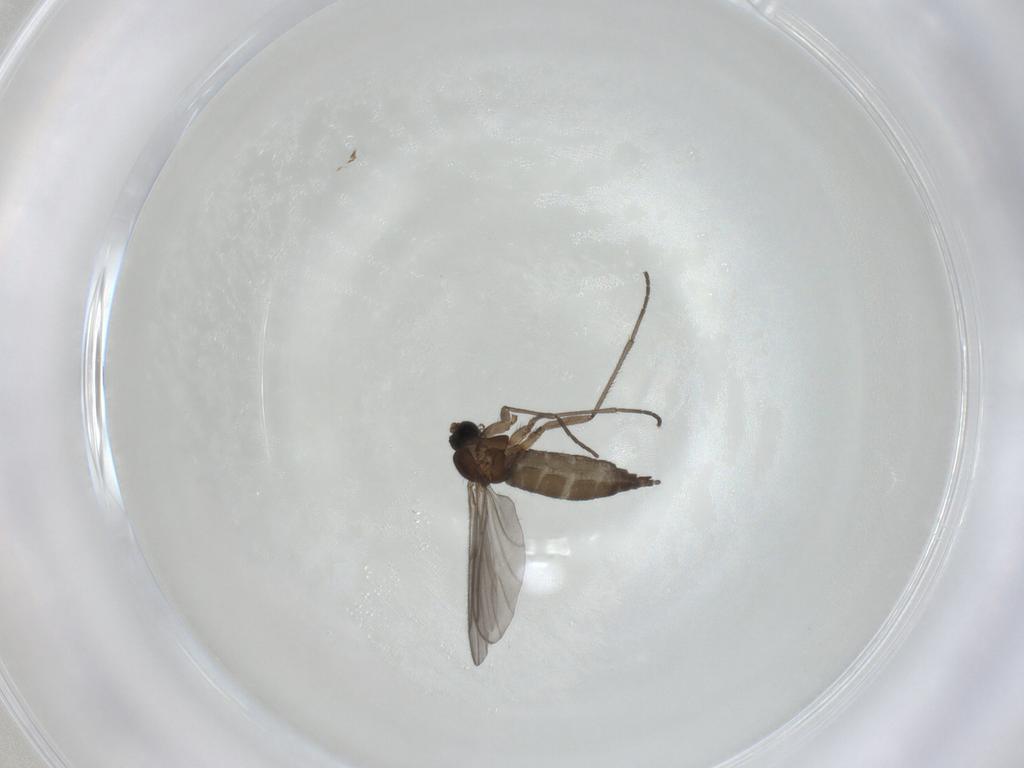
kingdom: Animalia
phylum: Arthropoda
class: Insecta
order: Diptera
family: Sciaridae
